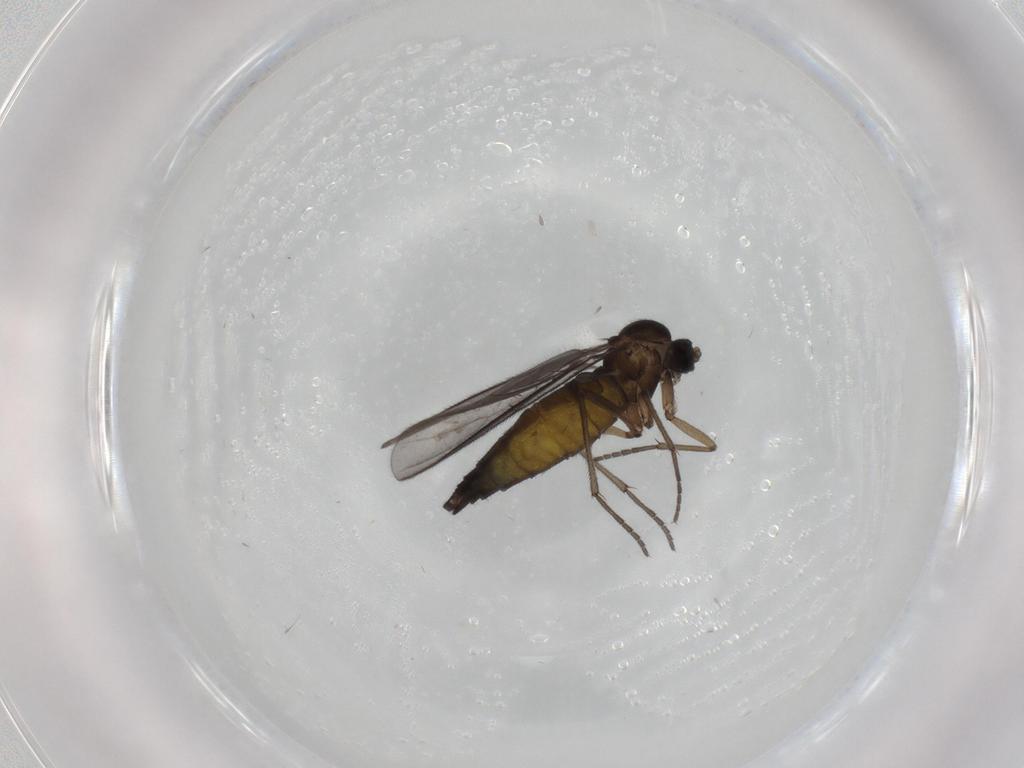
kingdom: Animalia
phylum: Arthropoda
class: Insecta
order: Diptera
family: Sciaridae
